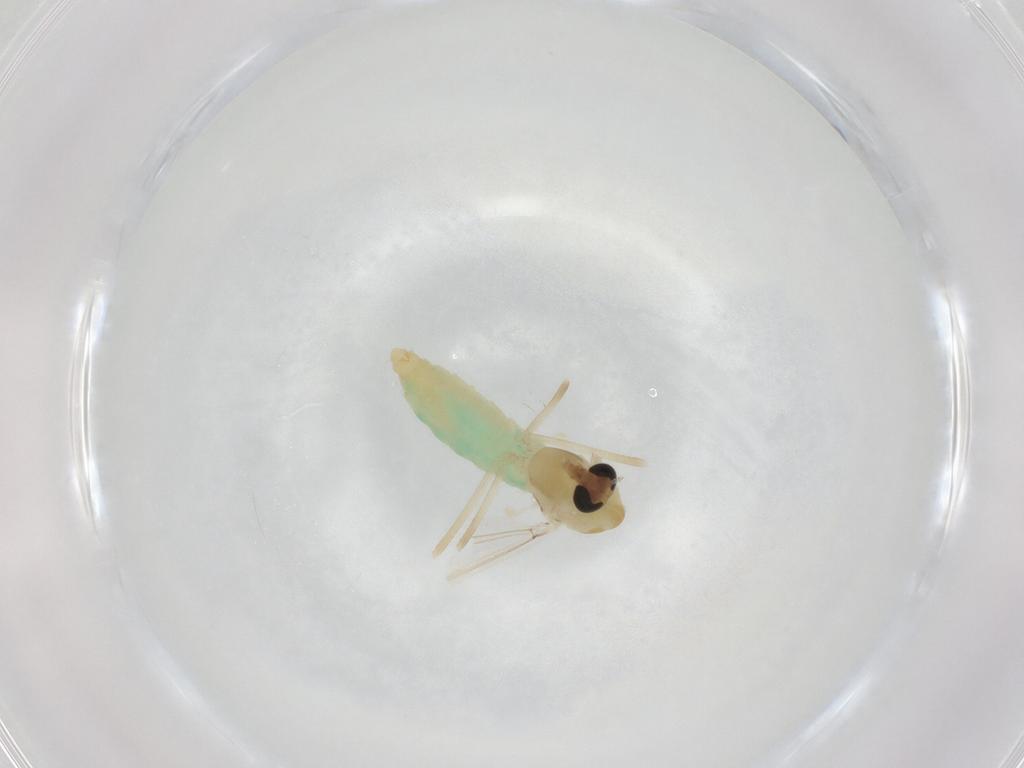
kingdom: Animalia
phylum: Arthropoda
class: Insecta
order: Diptera
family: Chironomidae
